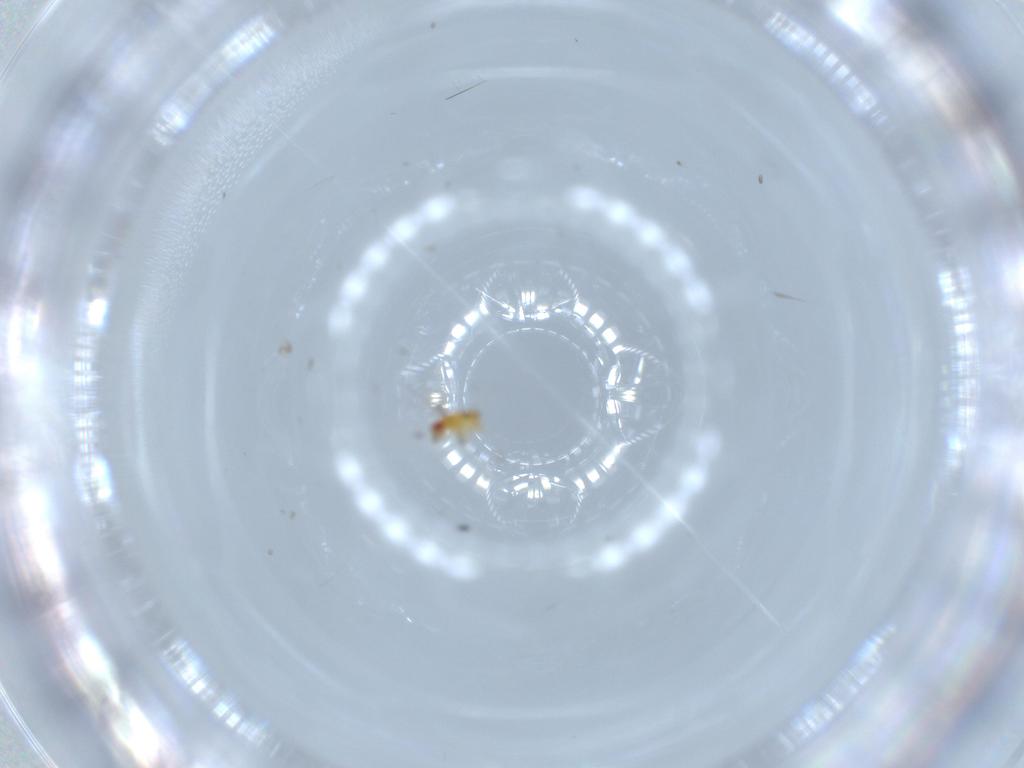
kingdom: Animalia
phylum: Arthropoda
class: Insecta
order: Hymenoptera
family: Trichogrammatidae
